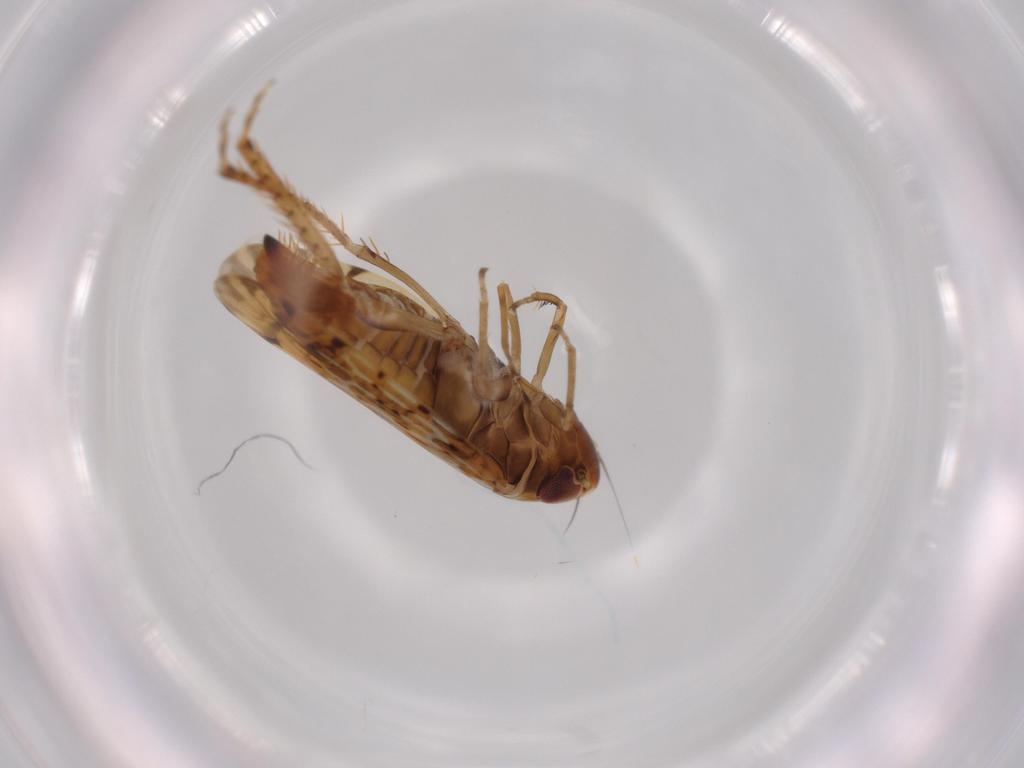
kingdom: Animalia
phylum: Arthropoda
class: Insecta
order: Hemiptera
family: Cicadellidae
